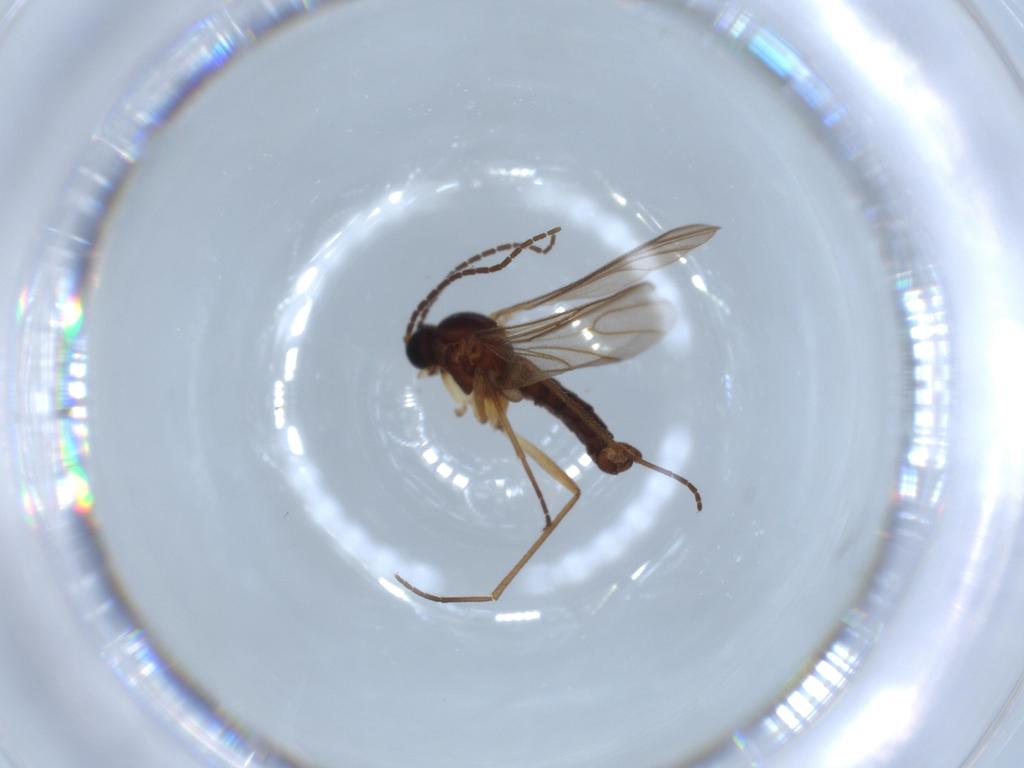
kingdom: Animalia
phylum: Arthropoda
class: Insecta
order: Diptera
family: Sciaridae
